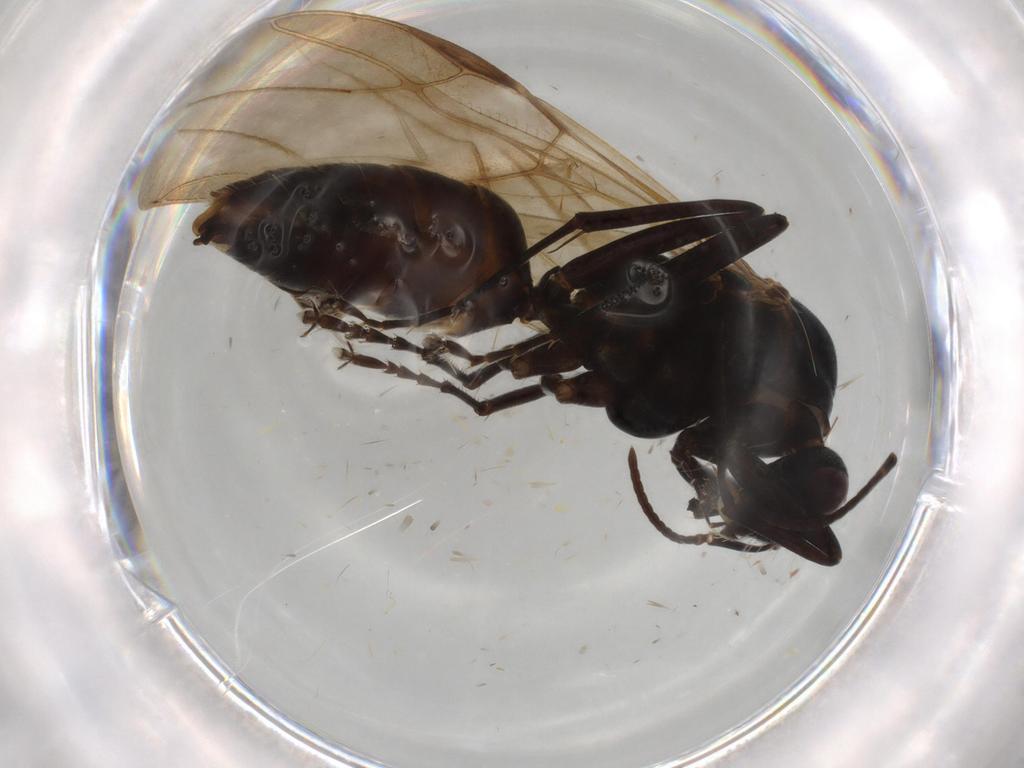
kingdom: Animalia
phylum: Arthropoda
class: Insecta
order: Hymenoptera
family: Formicidae
